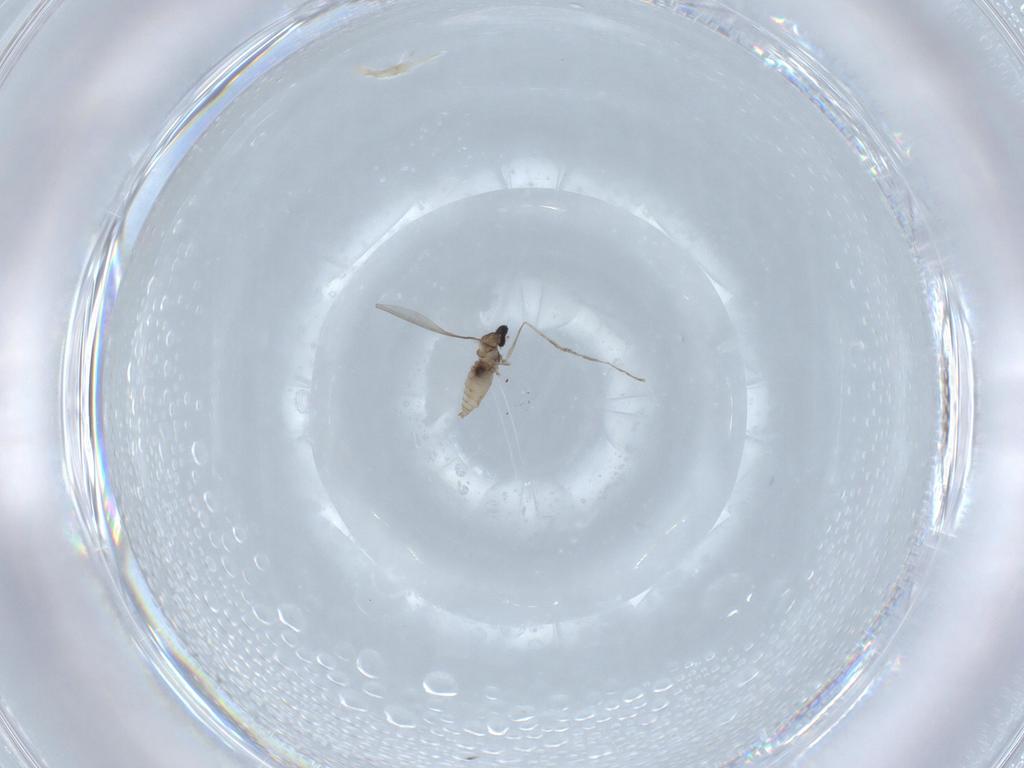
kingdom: Animalia
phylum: Arthropoda
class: Insecta
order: Diptera
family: Cecidomyiidae
